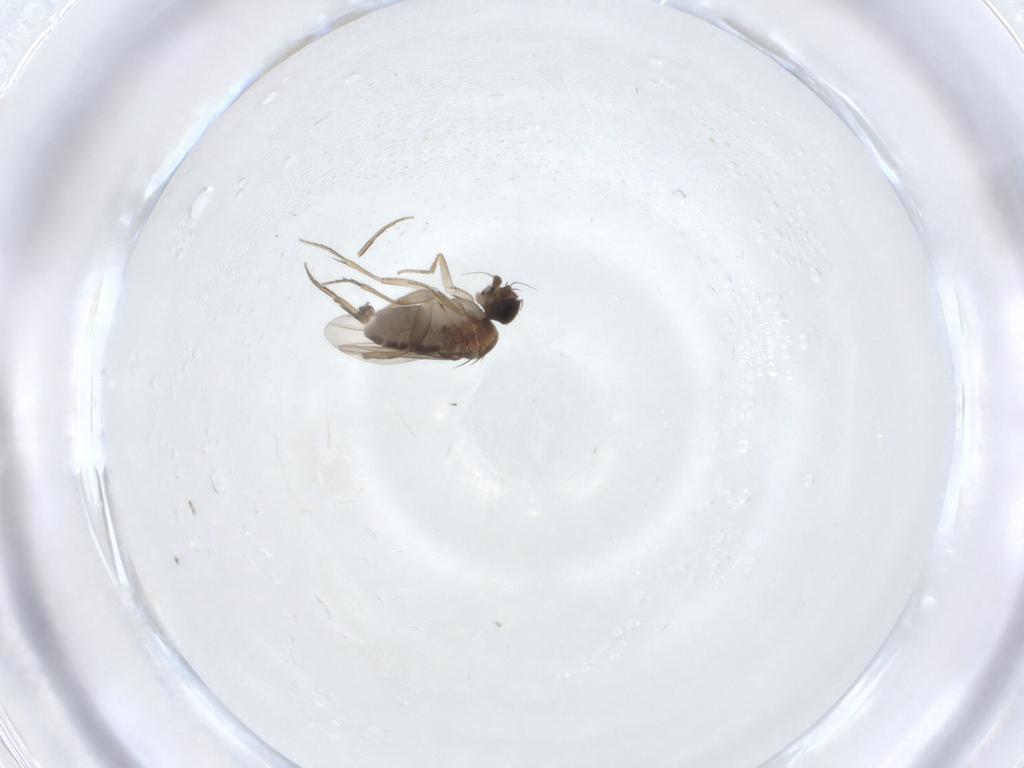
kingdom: Animalia
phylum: Arthropoda
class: Insecta
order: Diptera
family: Phoridae
